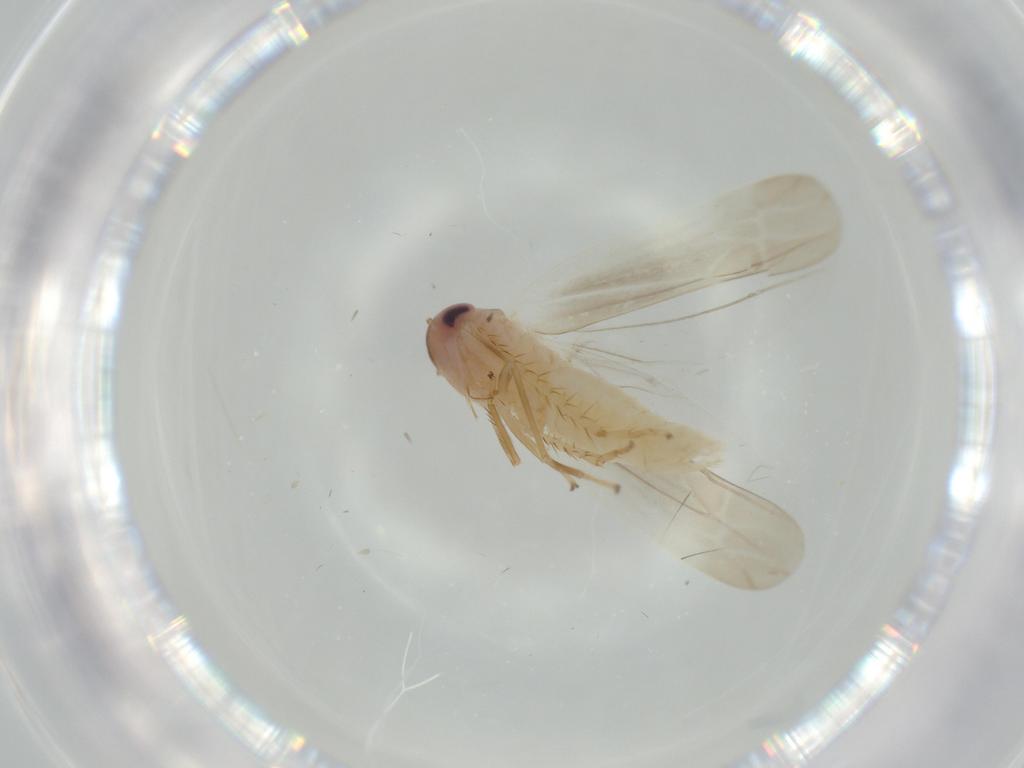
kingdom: Animalia
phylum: Arthropoda
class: Insecta
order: Hemiptera
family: Cicadellidae
